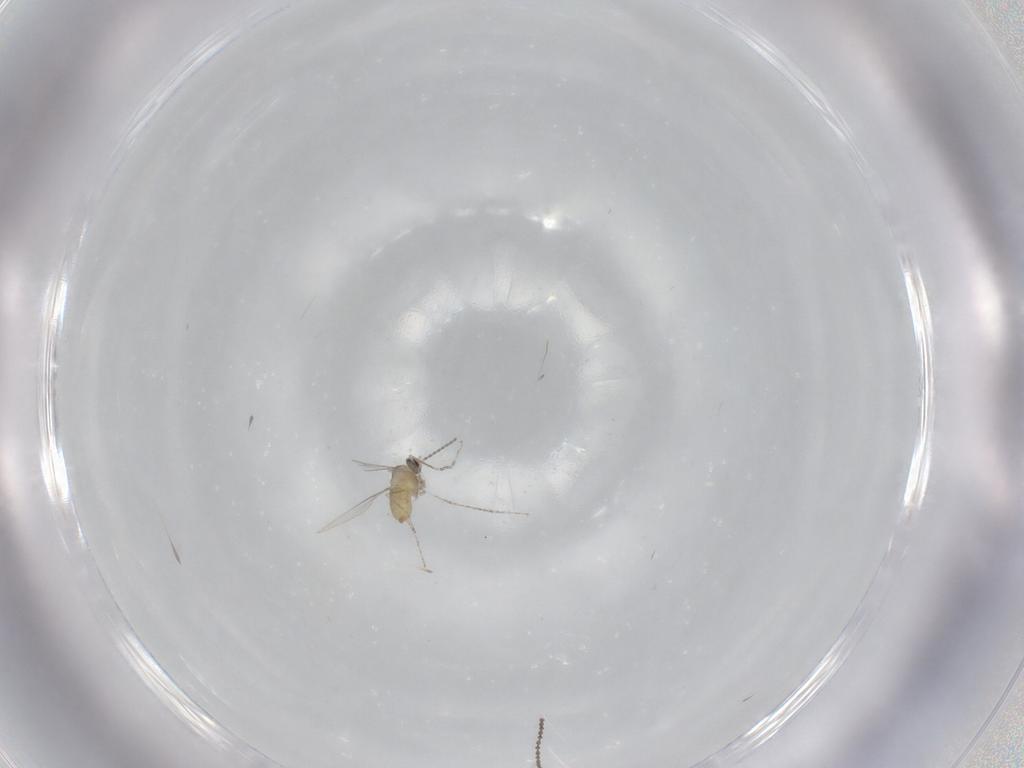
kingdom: Animalia
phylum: Arthropoda
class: Insecta
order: Diptera
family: Cecidomyiidae
